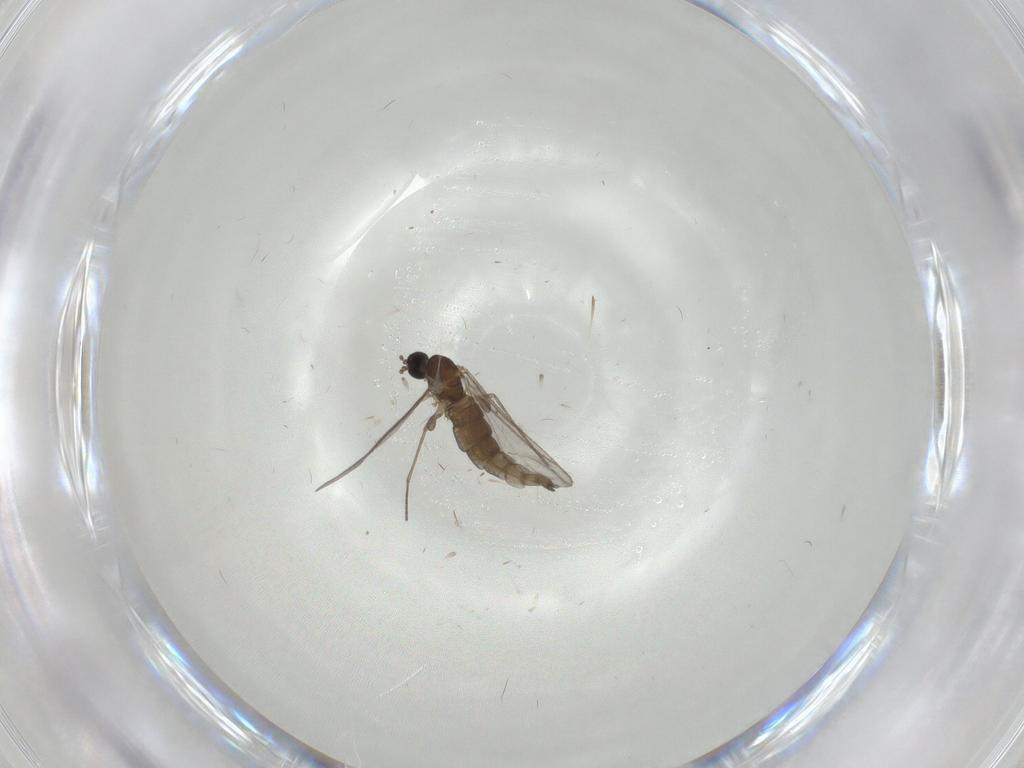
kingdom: Animalia
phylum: Arthropoda
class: Insecta
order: Diptera
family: Sciaridae
